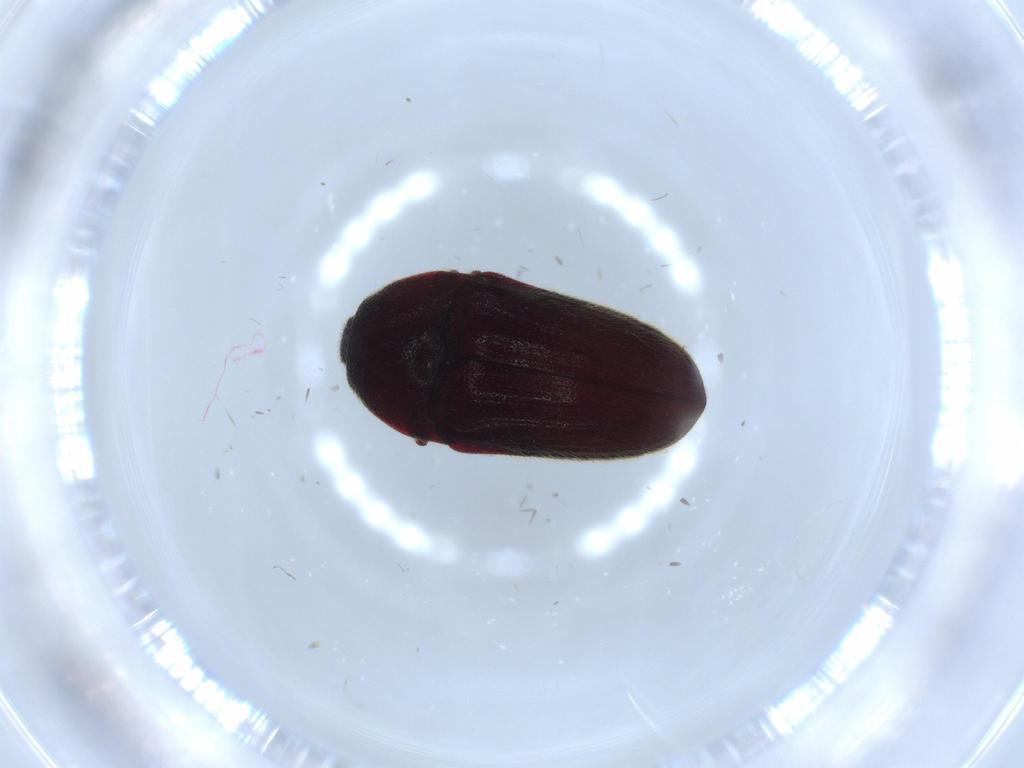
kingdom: Animalia
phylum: Arthropoda
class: Insecta
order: Coleoptera
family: Throscidae
